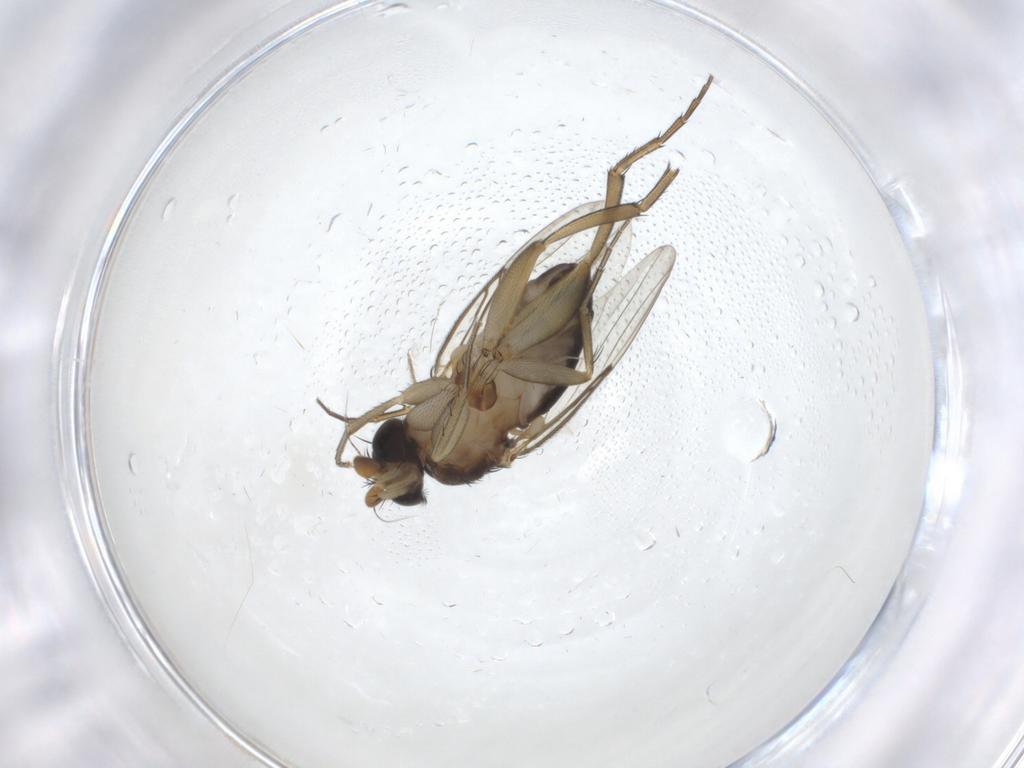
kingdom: Animalia
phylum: Arthropoda
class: Insecta
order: Diptera
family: Phoridae
